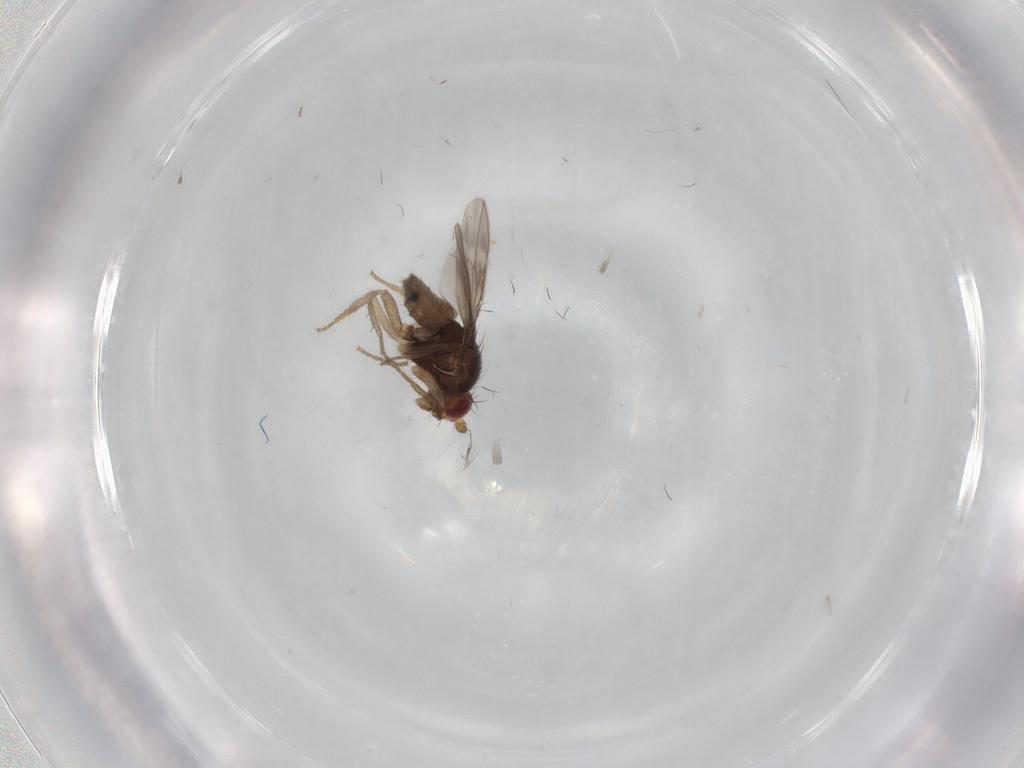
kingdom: Animalia
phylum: Arthropoda
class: Insecta
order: Diptera
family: Sphaeroceridae
